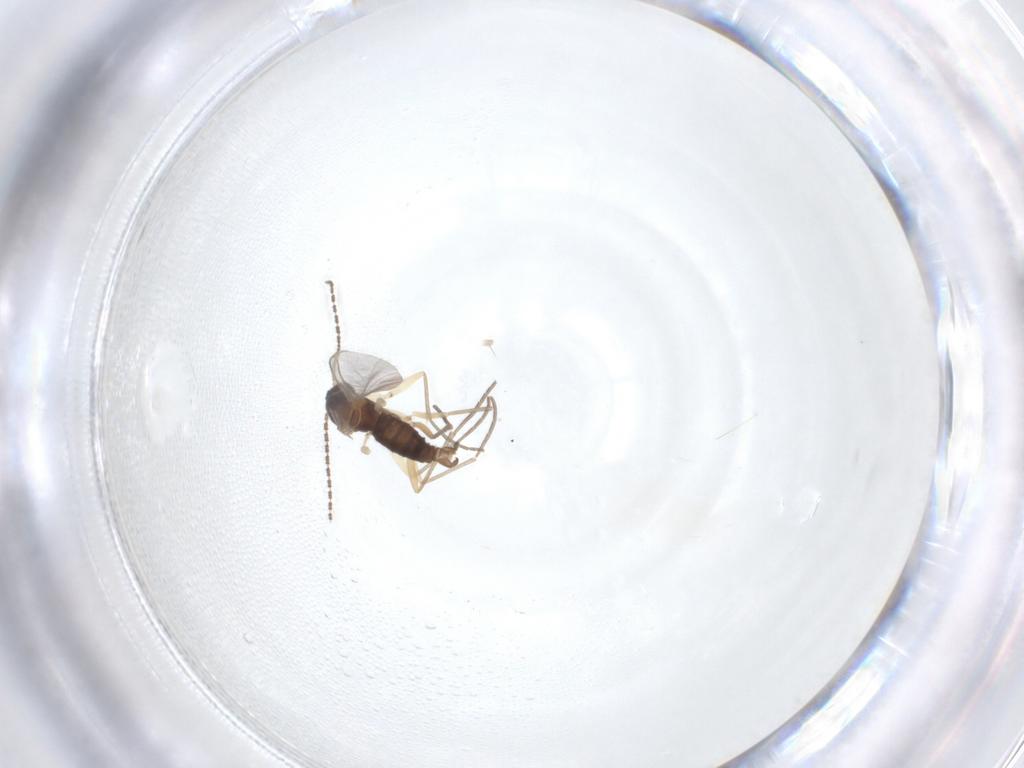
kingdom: Animalia
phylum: Arthropoda
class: Insecta
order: Diptera
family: Sciaridae
